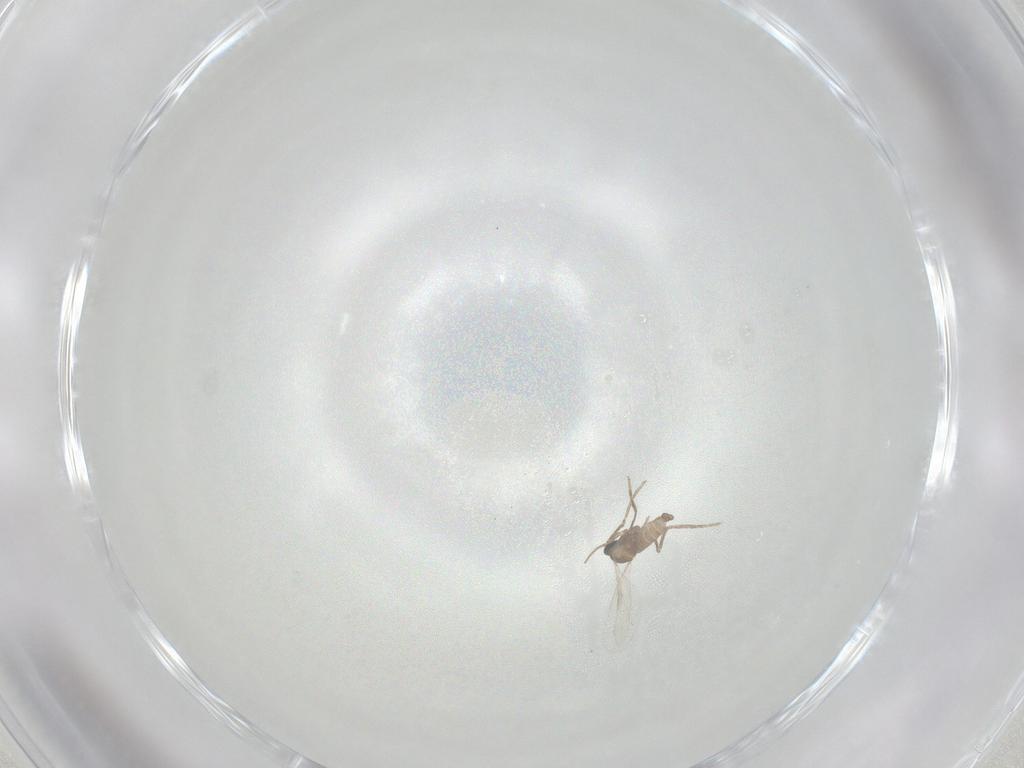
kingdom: Animalia
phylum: Arthropoda
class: Insecta
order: Diptera
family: Cecidomyiidae
